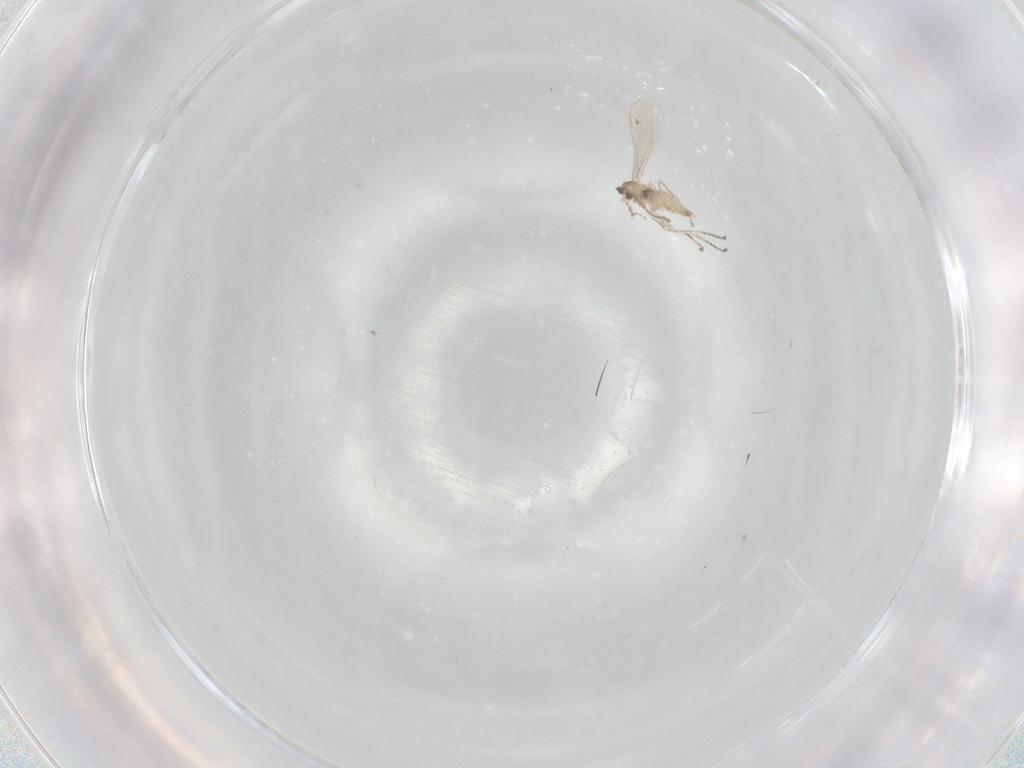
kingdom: Animalia
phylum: Arthropoda
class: Insecta
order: Diptera
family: Cecidomyiidae
